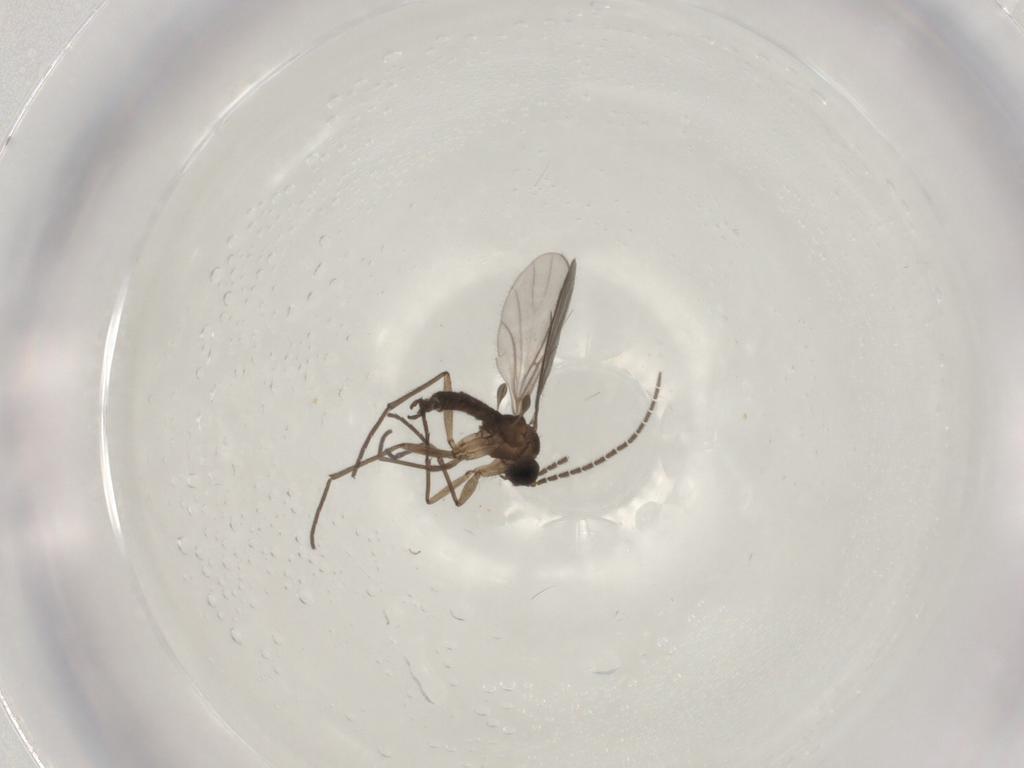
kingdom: Animalia
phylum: Arthropoda
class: Insecta
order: Diptera
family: Sciaridae
